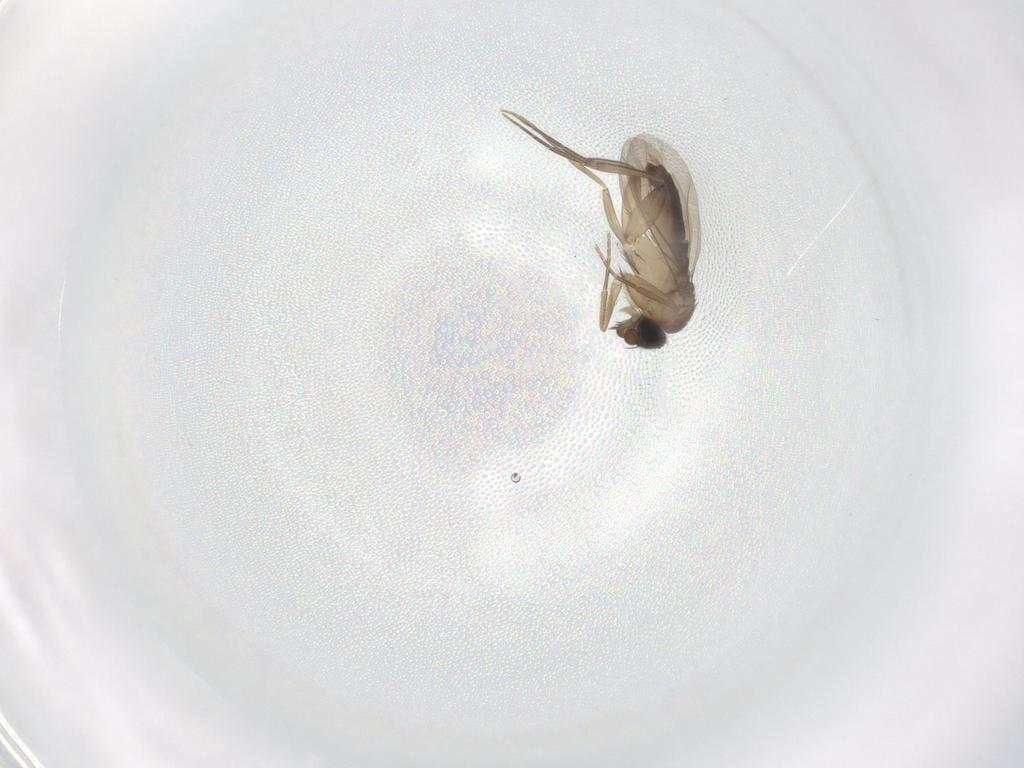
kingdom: Animalia
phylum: Arthropoda
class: Insecta
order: Diptera
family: Phoridae
